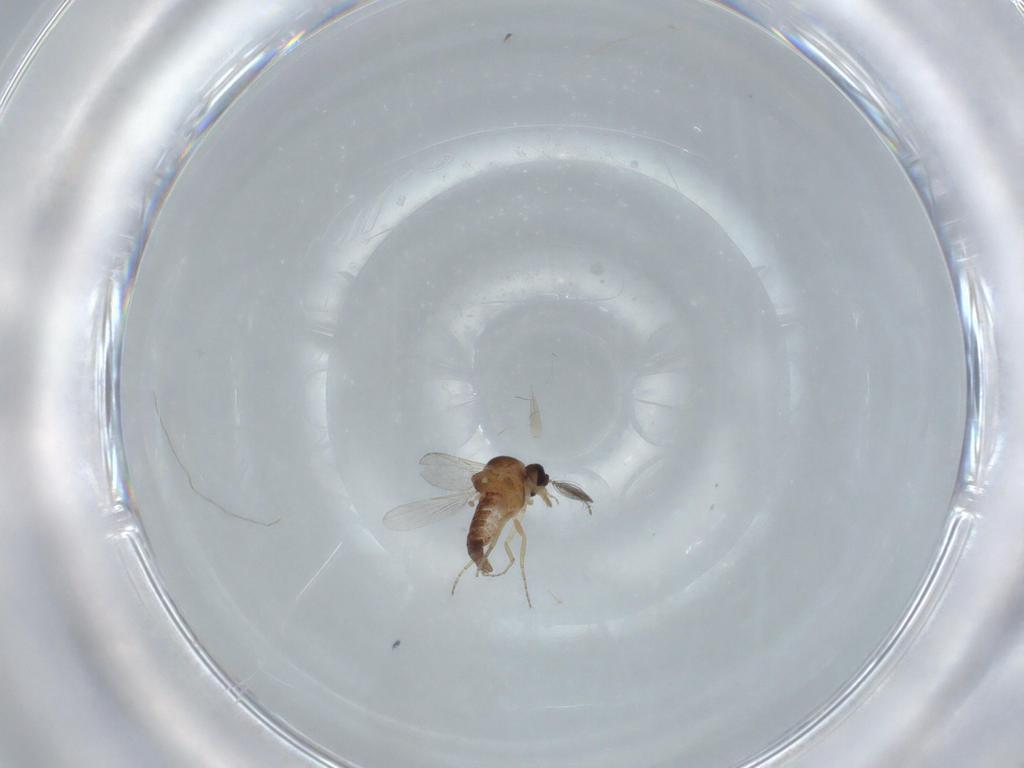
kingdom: Animalia
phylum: Arthropoda
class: Insecta
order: Diptera
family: Ceratopogonidae
